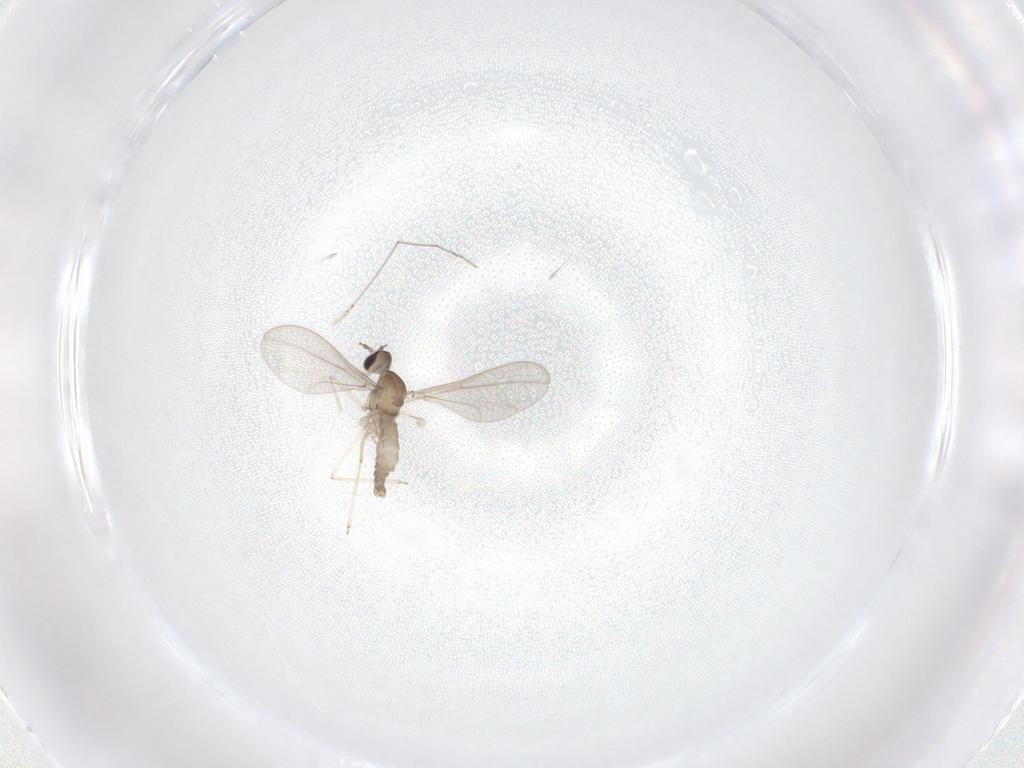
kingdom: Animalia
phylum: Arthropoda
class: Insecta
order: Diptera
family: Cecidomyiidae
